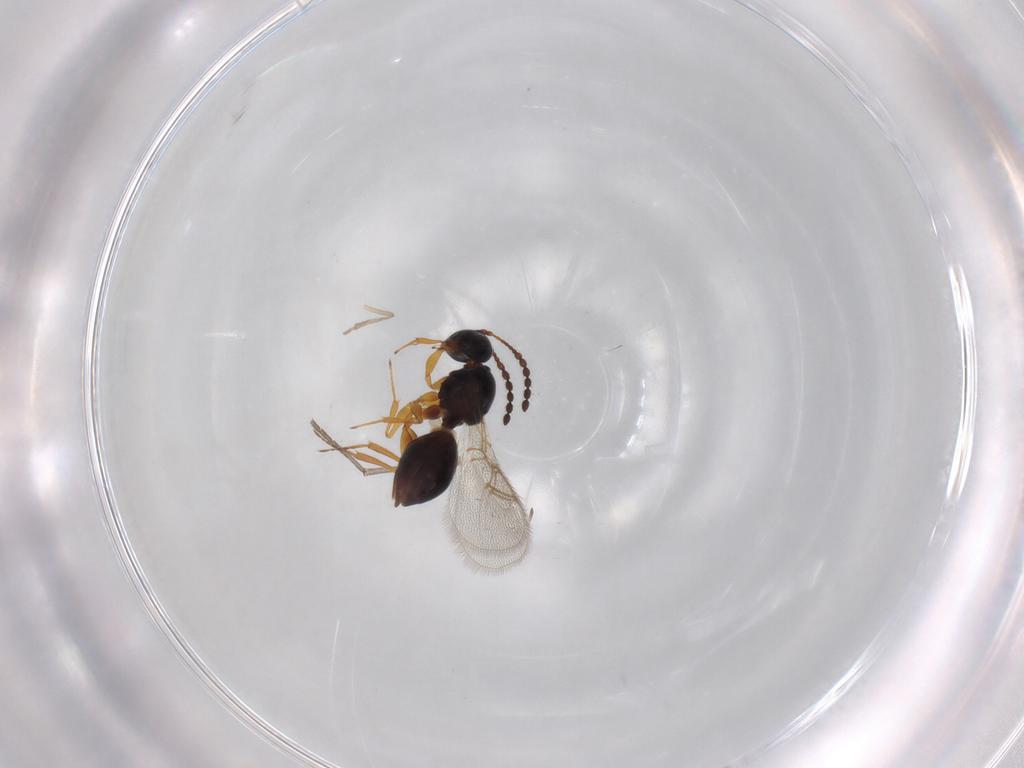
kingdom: Animalia
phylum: Arthropoda
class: Insecta
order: Hymenoptera
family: Figitidae
